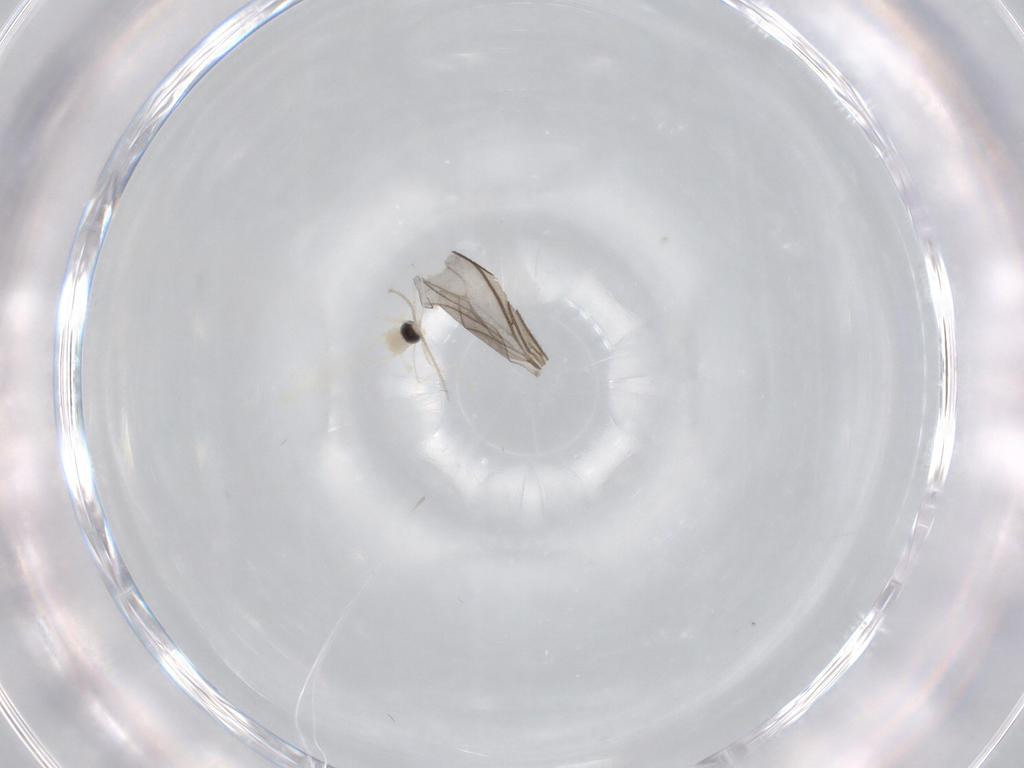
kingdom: Animalia
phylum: Arthropoda
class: Insecta
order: Diptera
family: Cecidomyiidae
